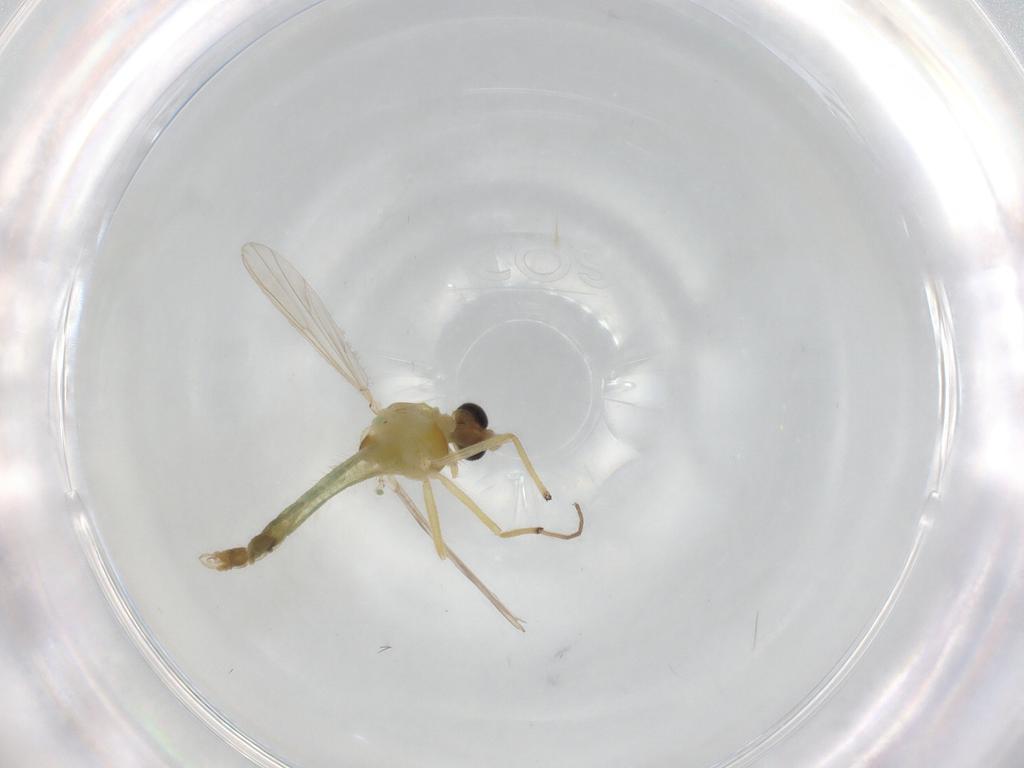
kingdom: Animalia
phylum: Arthropoda
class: Insecta
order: Diptera
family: Chironomidae
